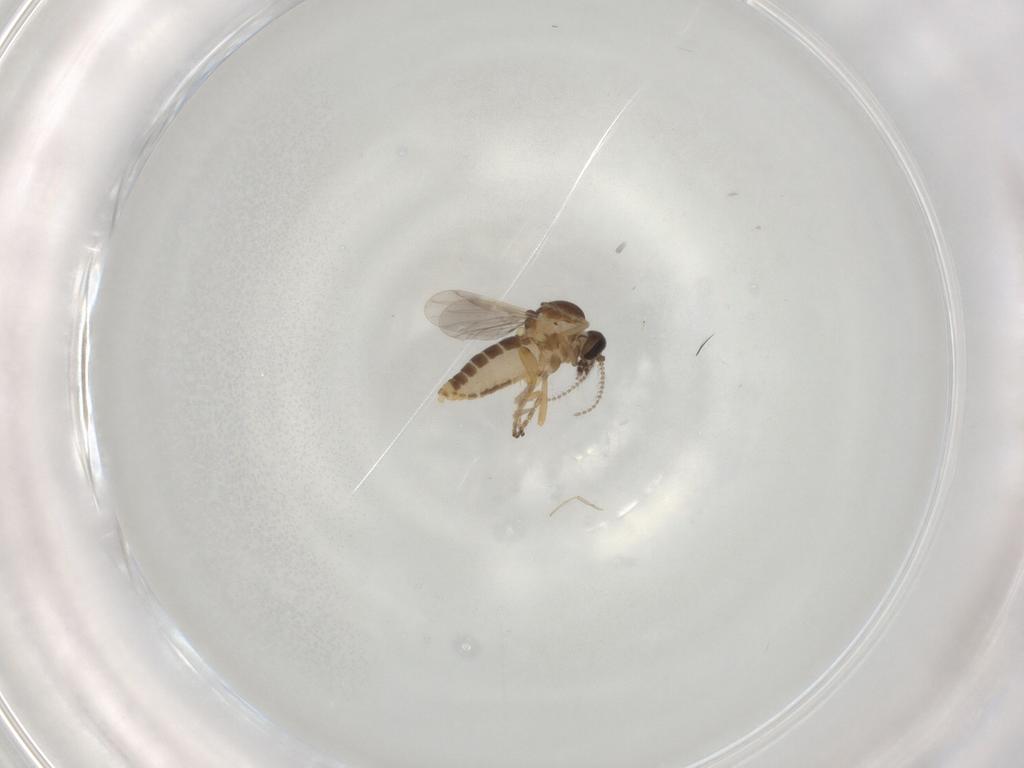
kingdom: Animalia
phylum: Arthropoda
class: Insecta
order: Diptera
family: Ceratopogonidae
